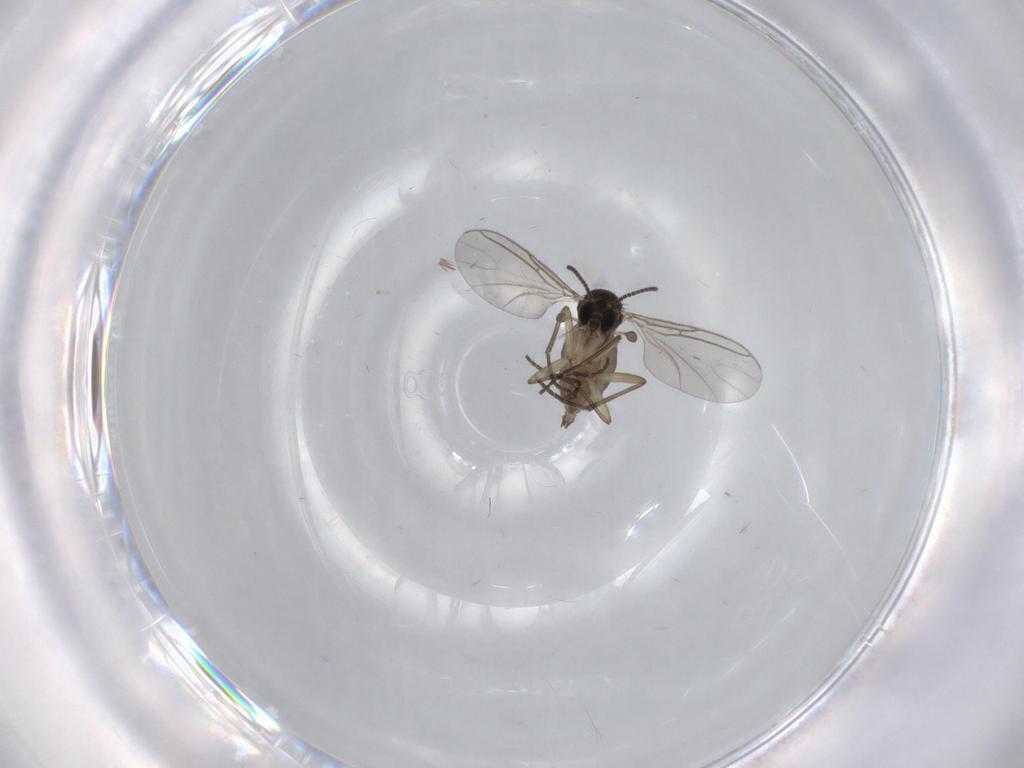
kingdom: Animalia
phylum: Arthropoda
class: Insecta
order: Diptera
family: Sciaridae
